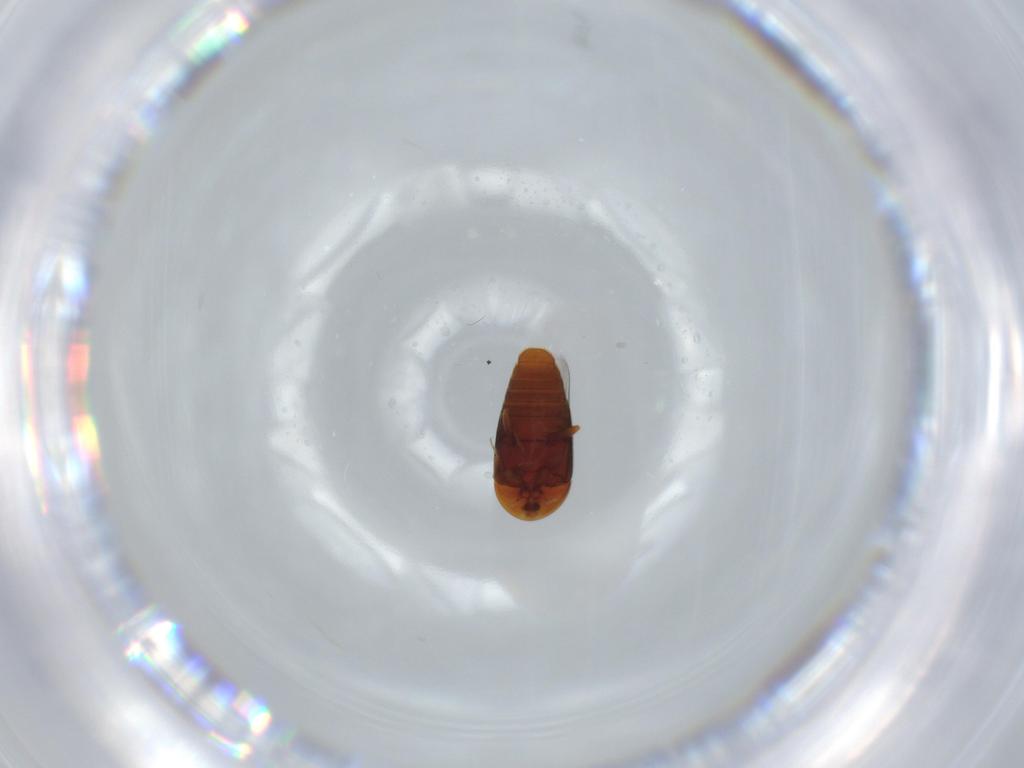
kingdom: Animalia
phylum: Arthropoda
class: Insecta
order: Coleoptera
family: Corylophidae
